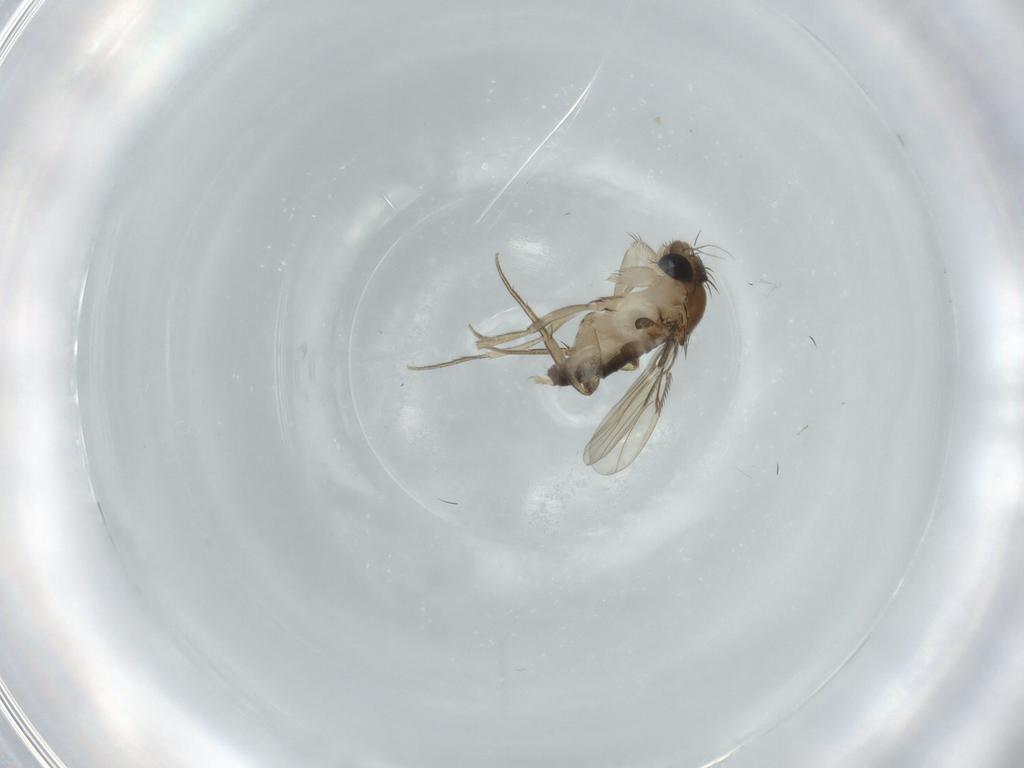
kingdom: Animalia
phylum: Arthropoda
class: Insecta
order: Diptera
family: Phoridae
